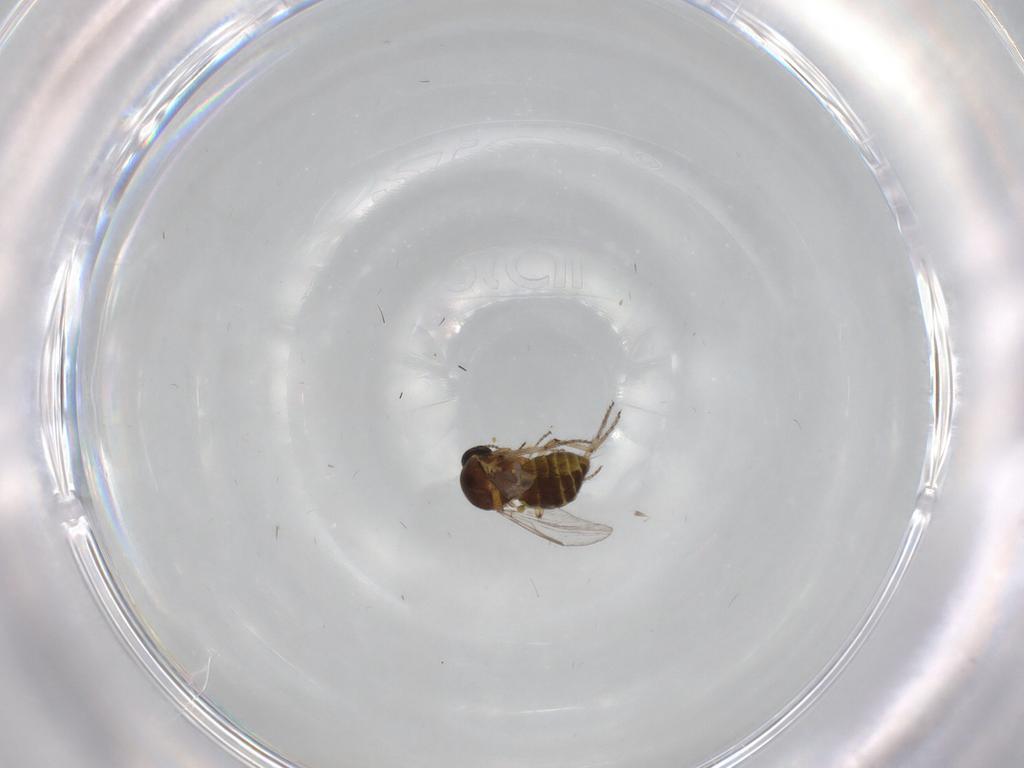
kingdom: Animalia
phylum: Arthropoda
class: Insecta
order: Diptera
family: Ceratopogonidae
